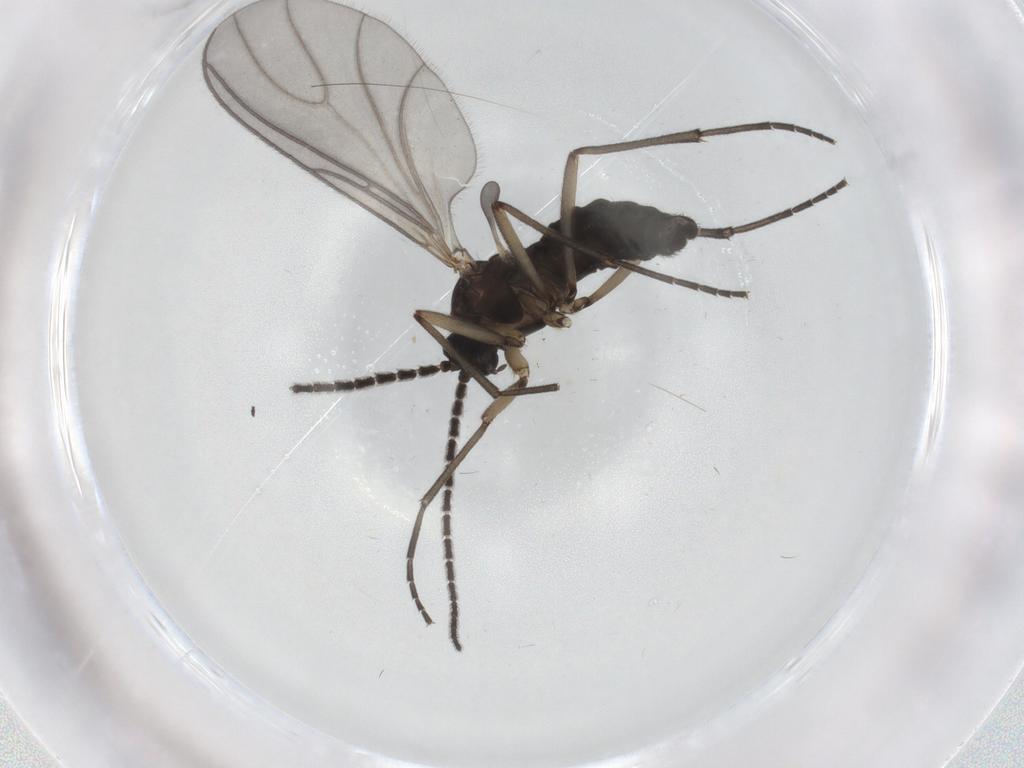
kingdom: Animalia
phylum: Arthropoda
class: Insecta
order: Diptera
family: Sciaridae
